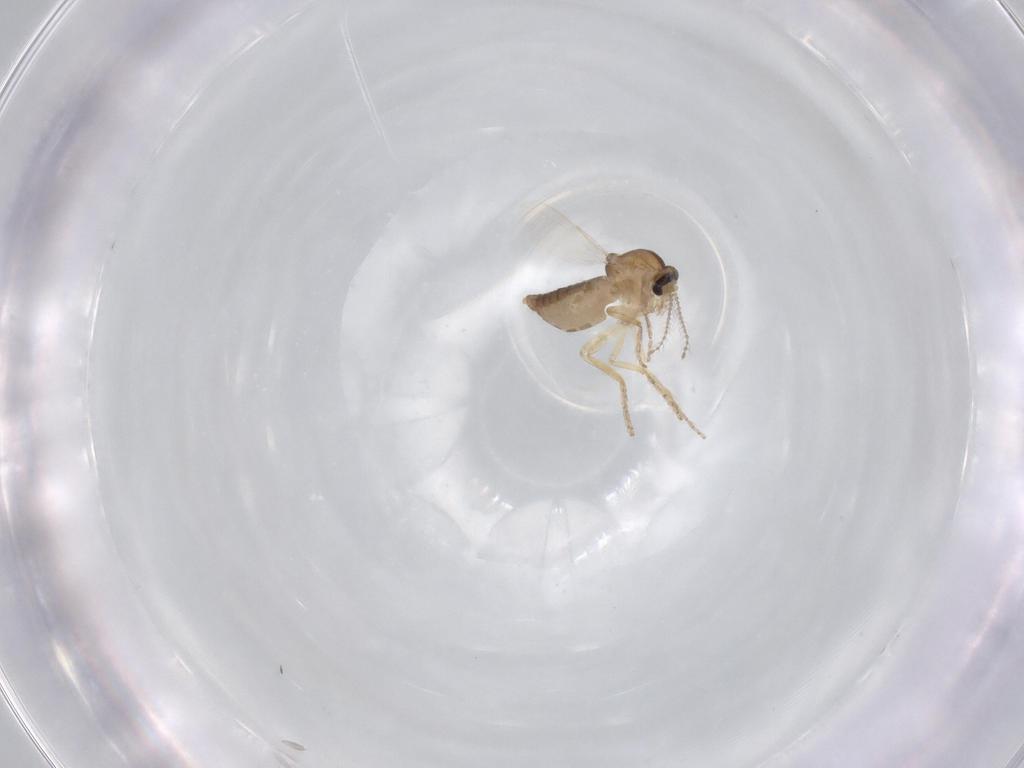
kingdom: Animalia
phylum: Arthropoda
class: Insecta
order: Diptera
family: Ceratopogonidae
